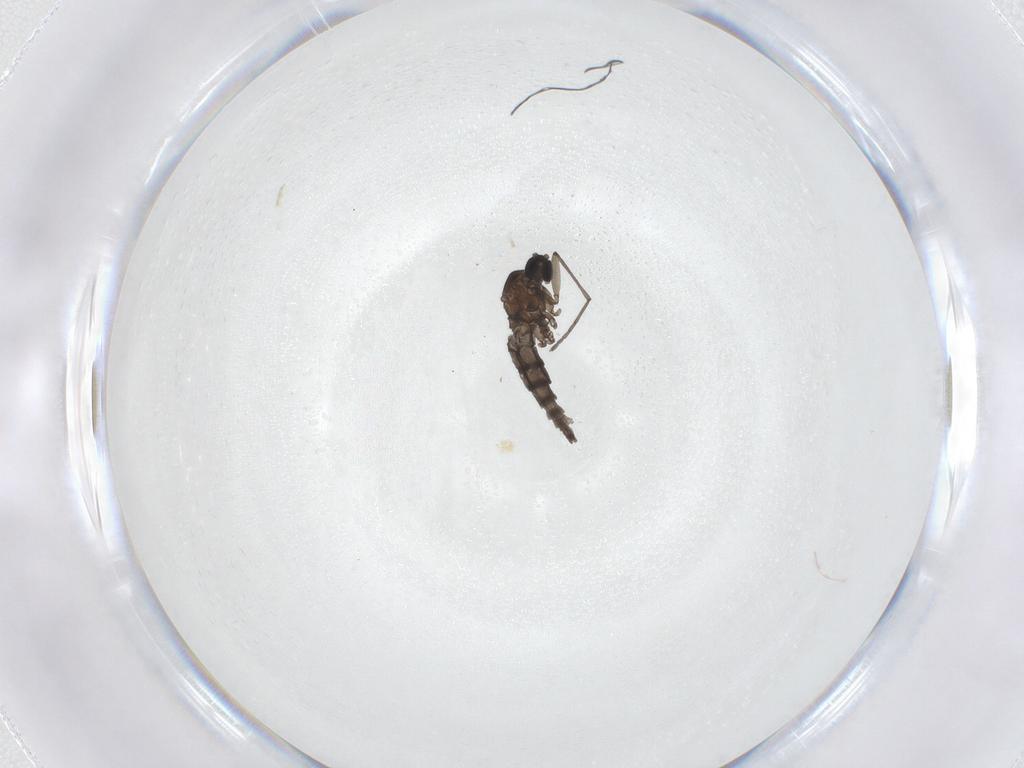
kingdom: Animalia
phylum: Arthropoda
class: Insecta
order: Diptera
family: Sciaridae
